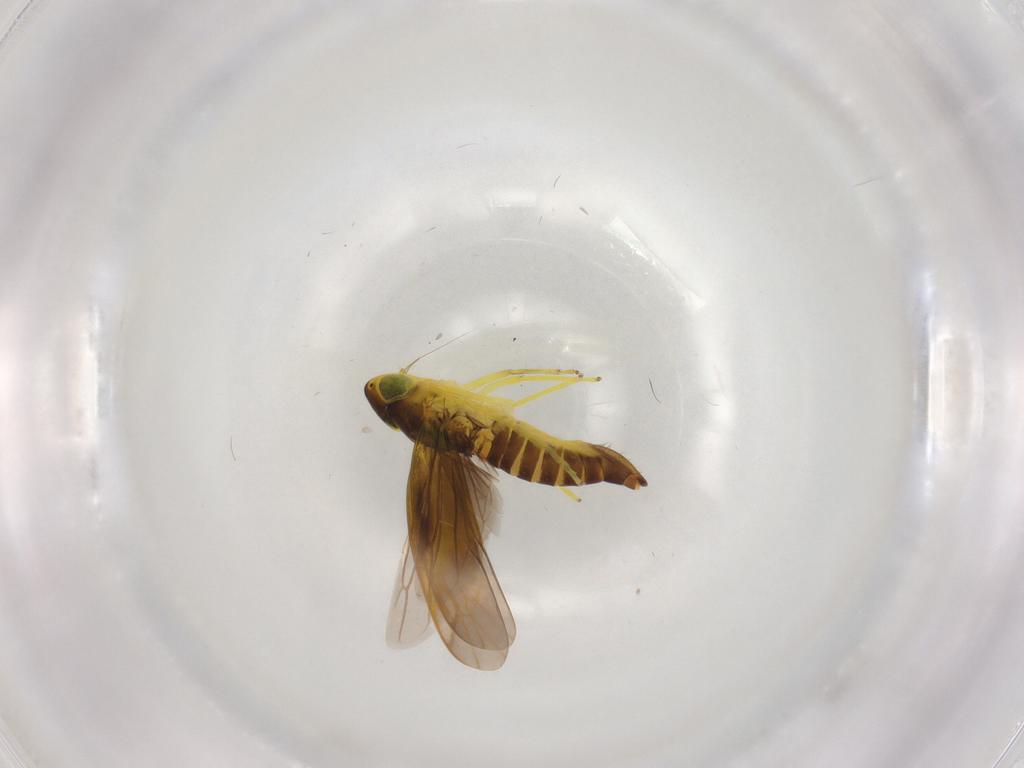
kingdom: Animalia
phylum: Arthropoda
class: Insecta
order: Hemiptera
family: Cicadellidae
